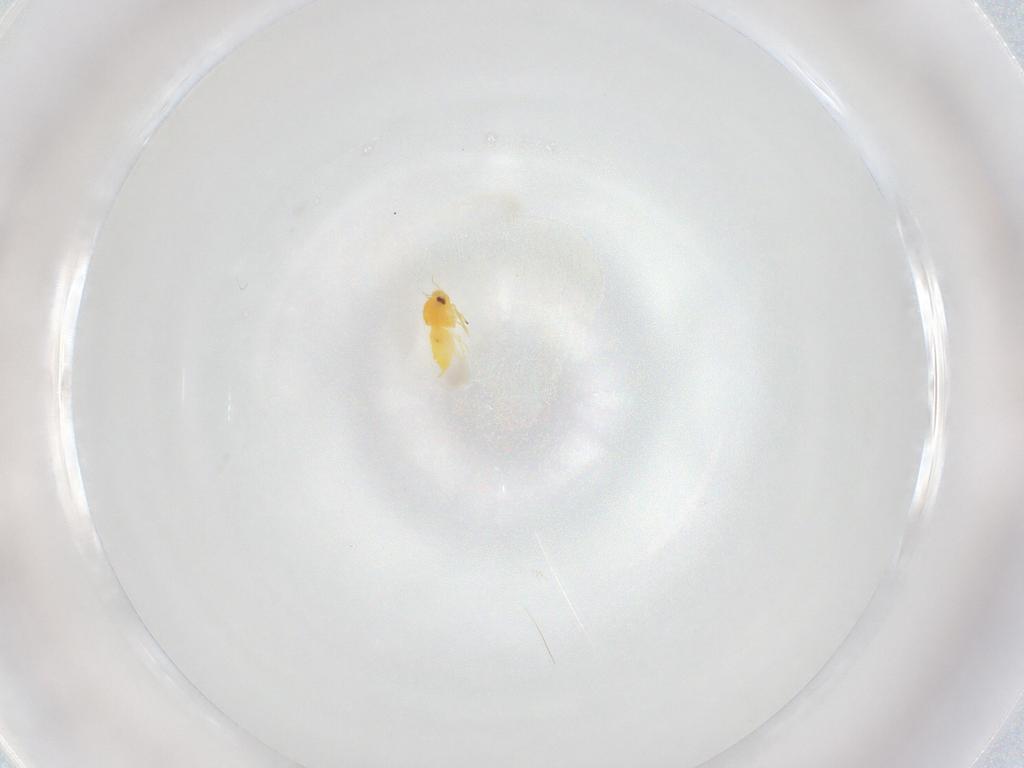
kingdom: Animalia
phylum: Arthropoda
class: Insecta
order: Hemiptera
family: Aleyrodidae
